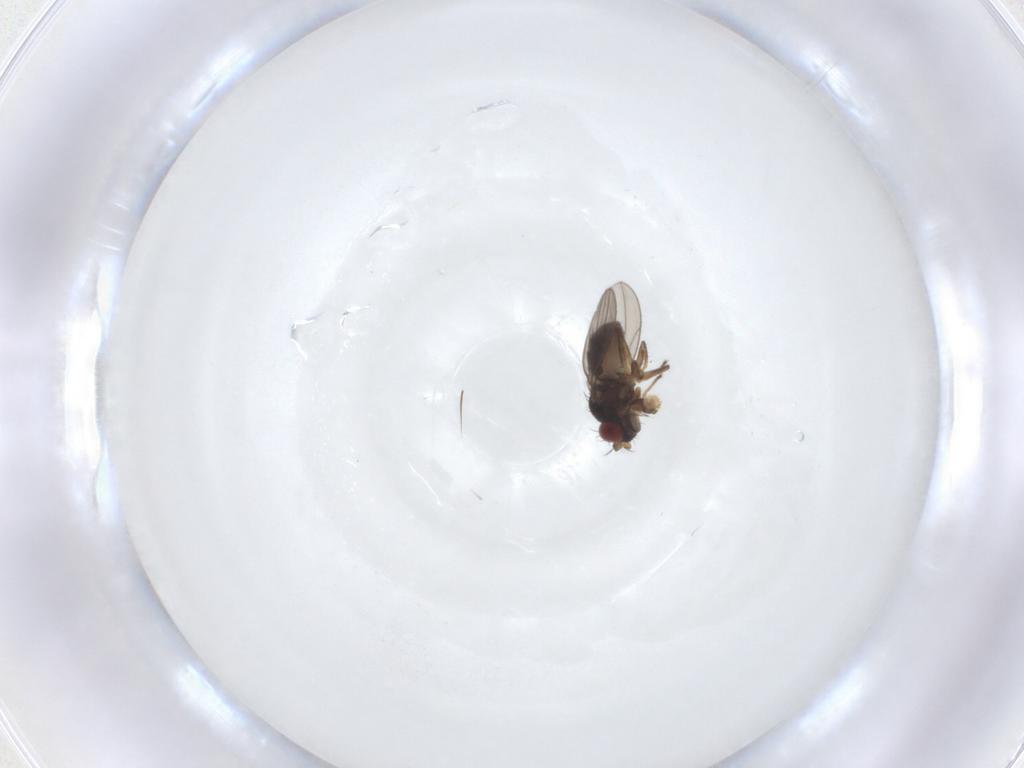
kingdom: Animalia
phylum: Arthropoda
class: Insecta
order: Diptera
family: Ephydridae
